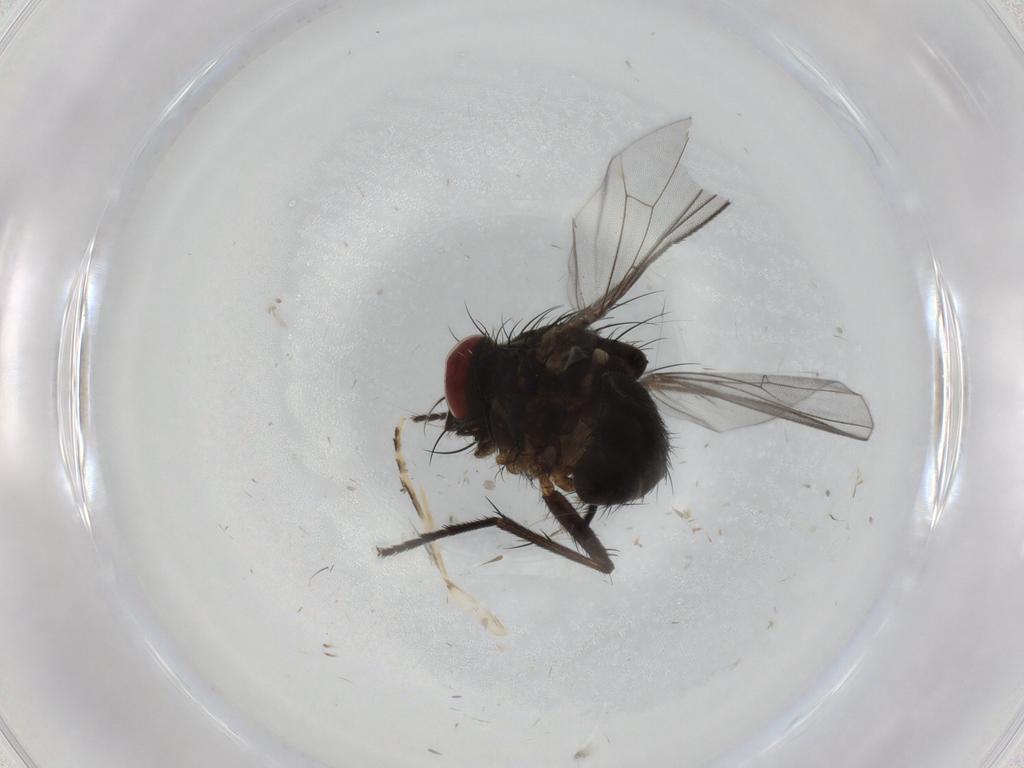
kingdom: Animalia
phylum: Arthropoda
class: Insecta
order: Diptera
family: Muscidae
